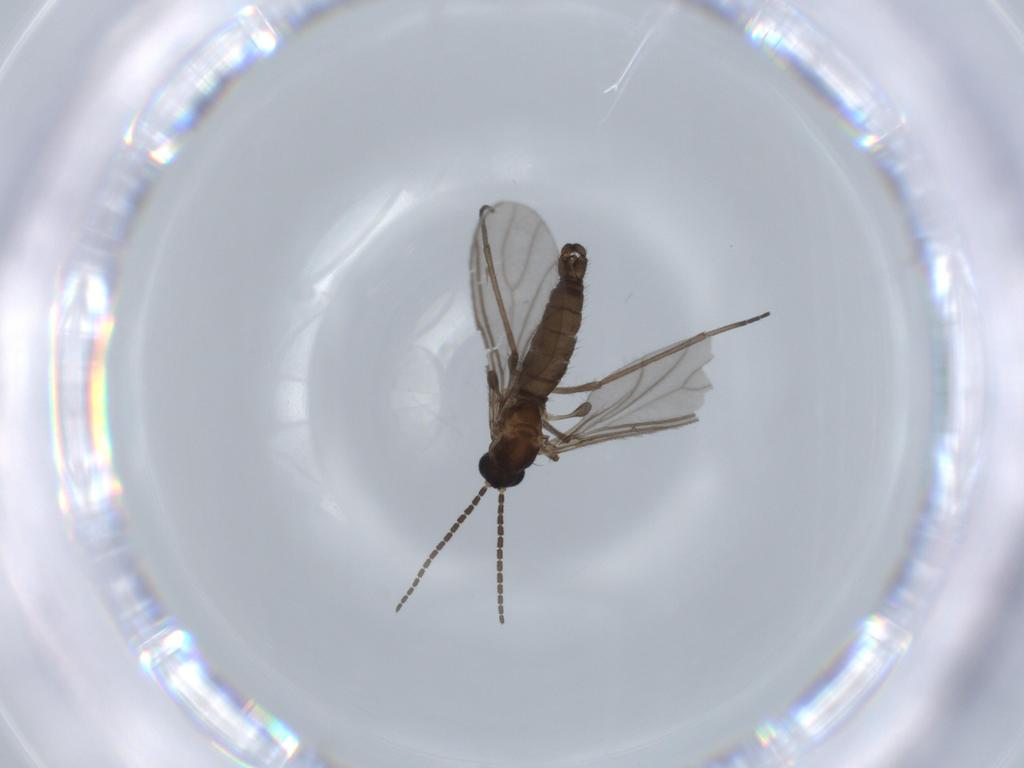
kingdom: Animalia
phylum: Arthropoda
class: Insecta
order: Diptera
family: Sciaridae
